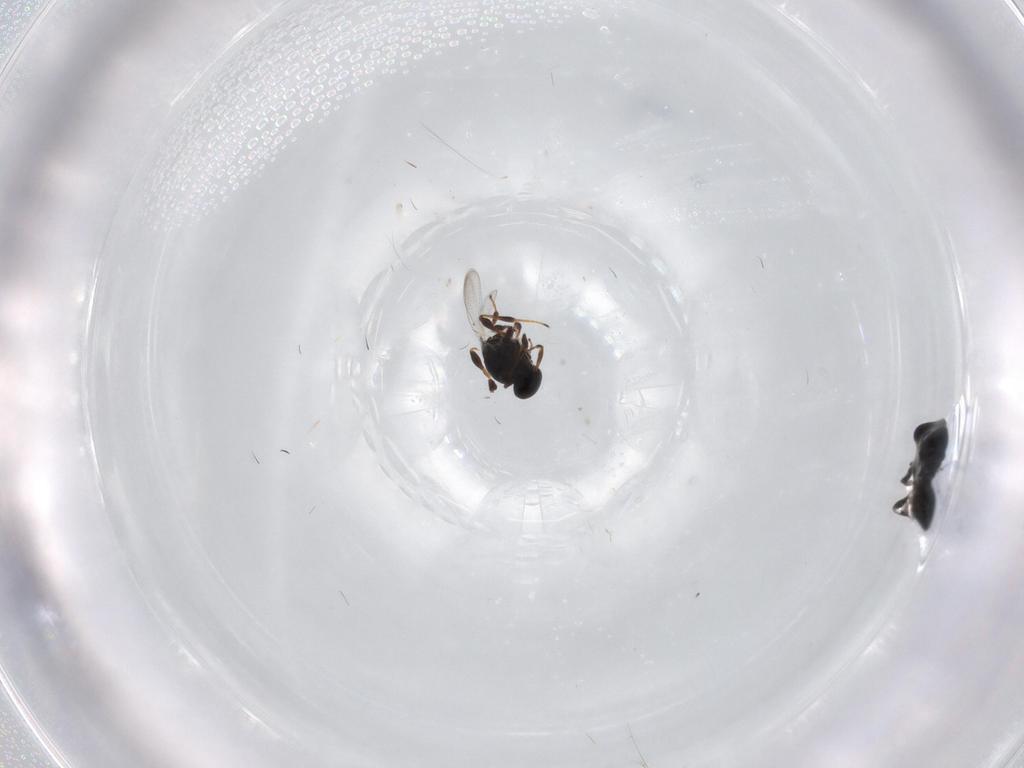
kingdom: Animalia
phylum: Arthropoda
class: Insecta
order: Hymenoptera
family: Platygastridae
